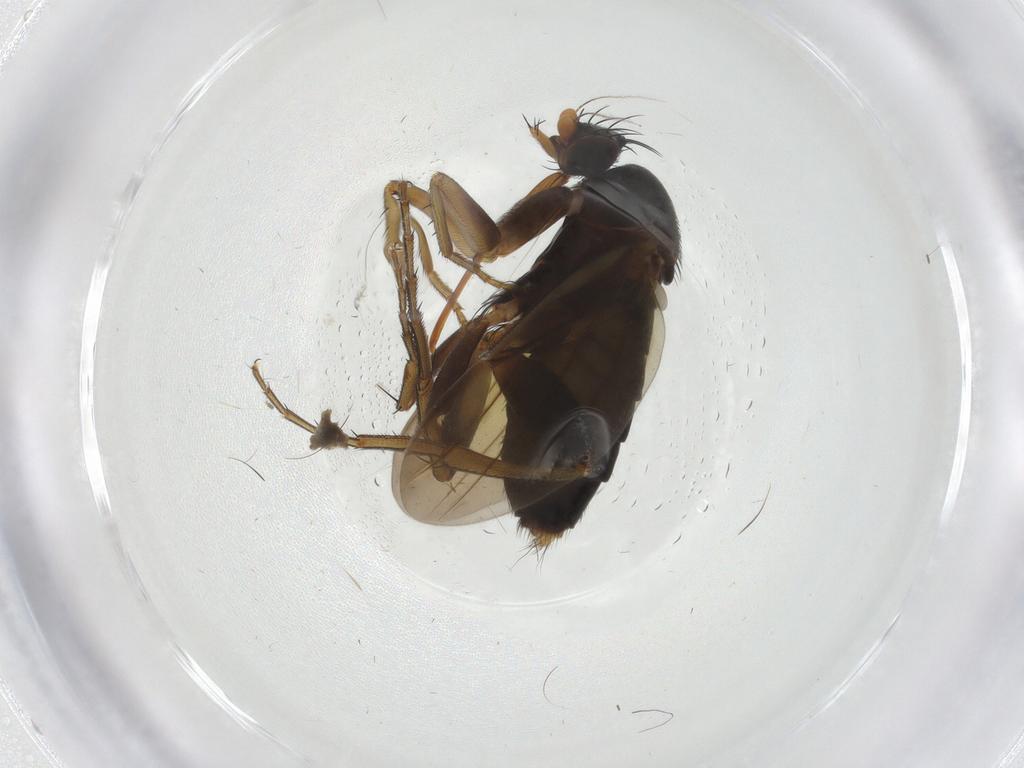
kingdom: Animalia
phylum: Arthropoda
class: Insecta
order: Diptera
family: Phoridae
